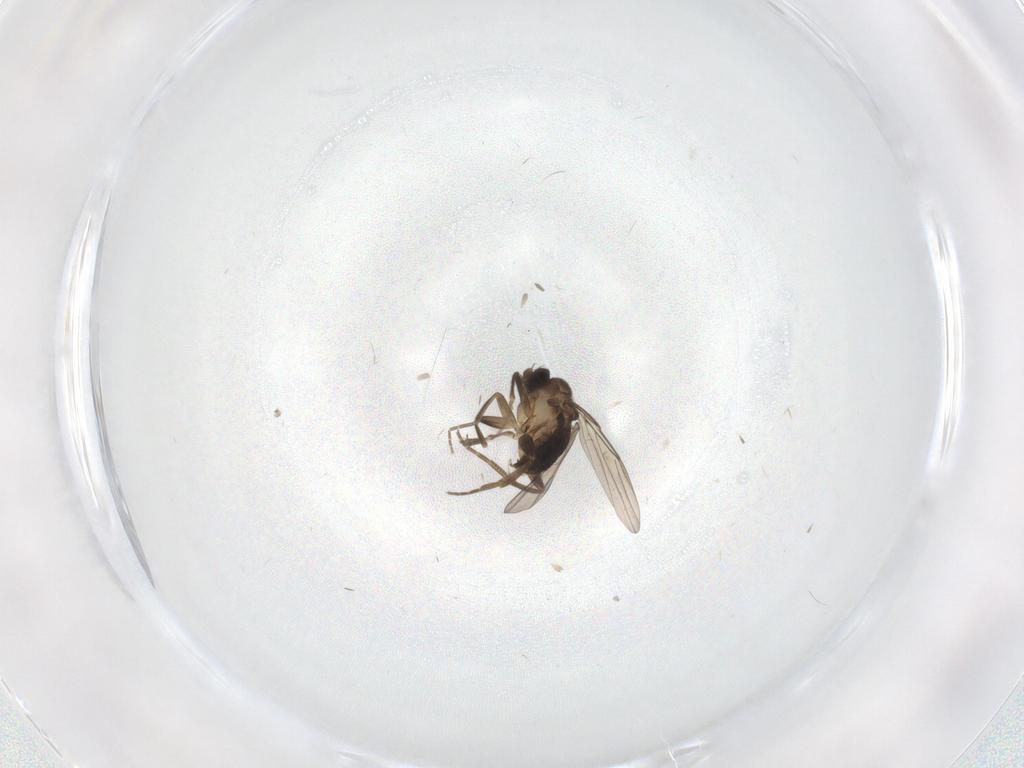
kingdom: Animalia
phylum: Arthropoda
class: Insecta
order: Diptera
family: Phoridae
